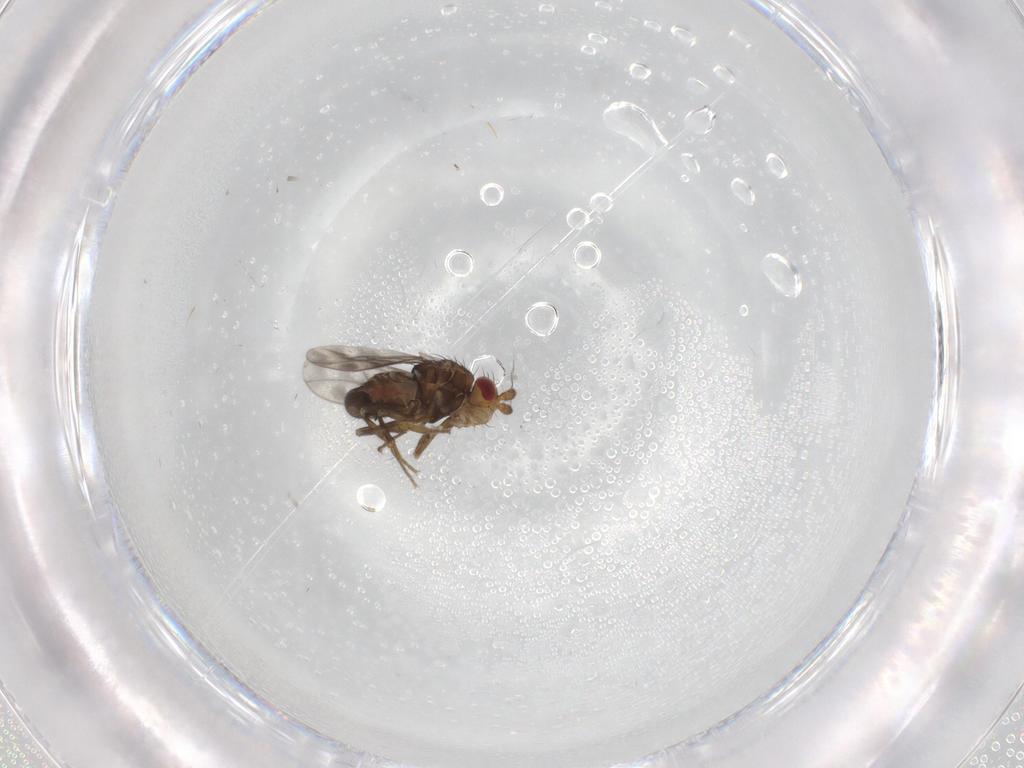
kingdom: Animalia
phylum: Arthropoda
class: Insecta
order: Diptera
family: Sphaeroceridae
